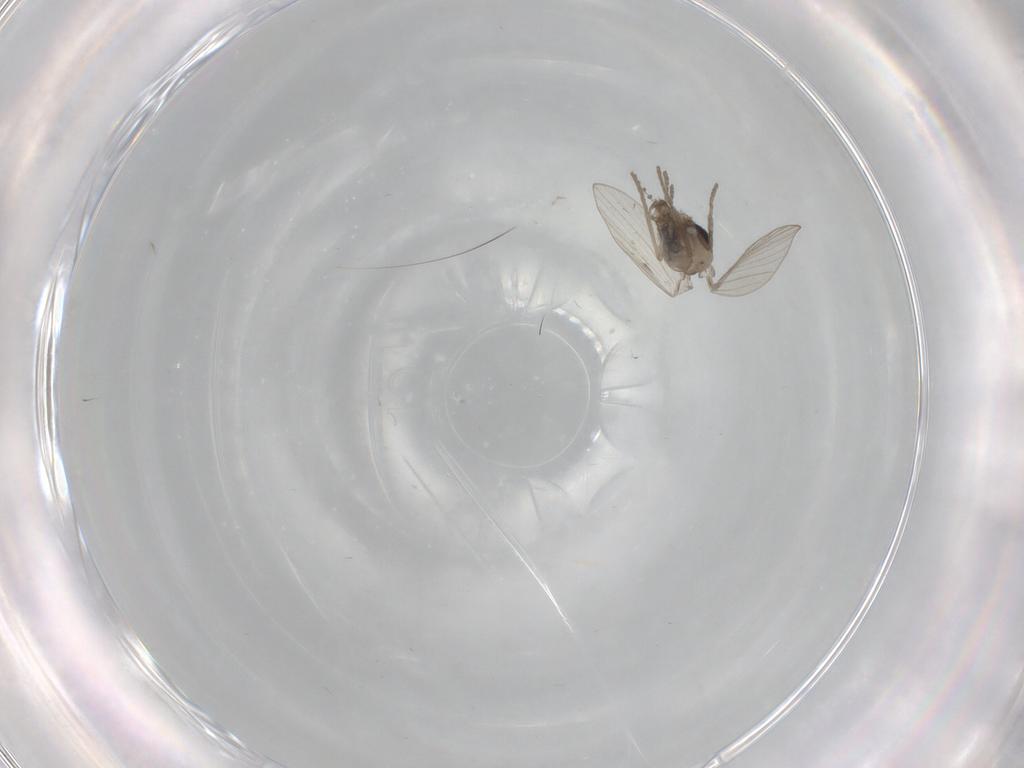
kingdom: Animalia
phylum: Arthropoda
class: Insecta
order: Diptera
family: Psychodidae
